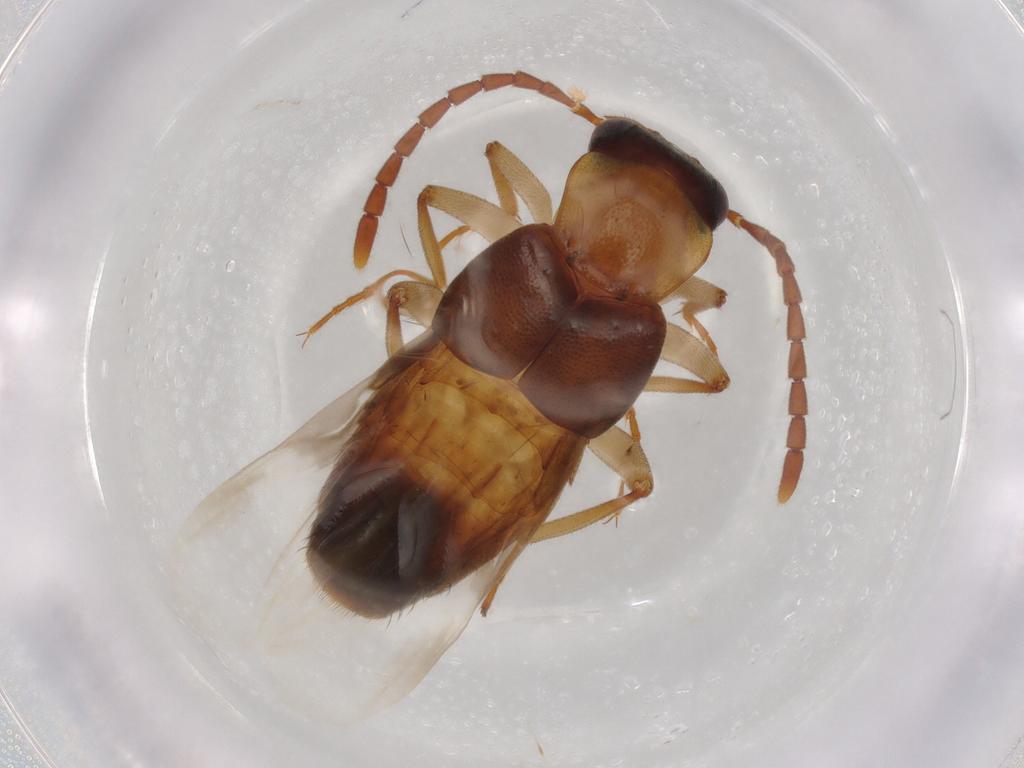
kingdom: Animalia
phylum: Arthropoda
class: Insecta
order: Coleoptera
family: Staphylinidae
